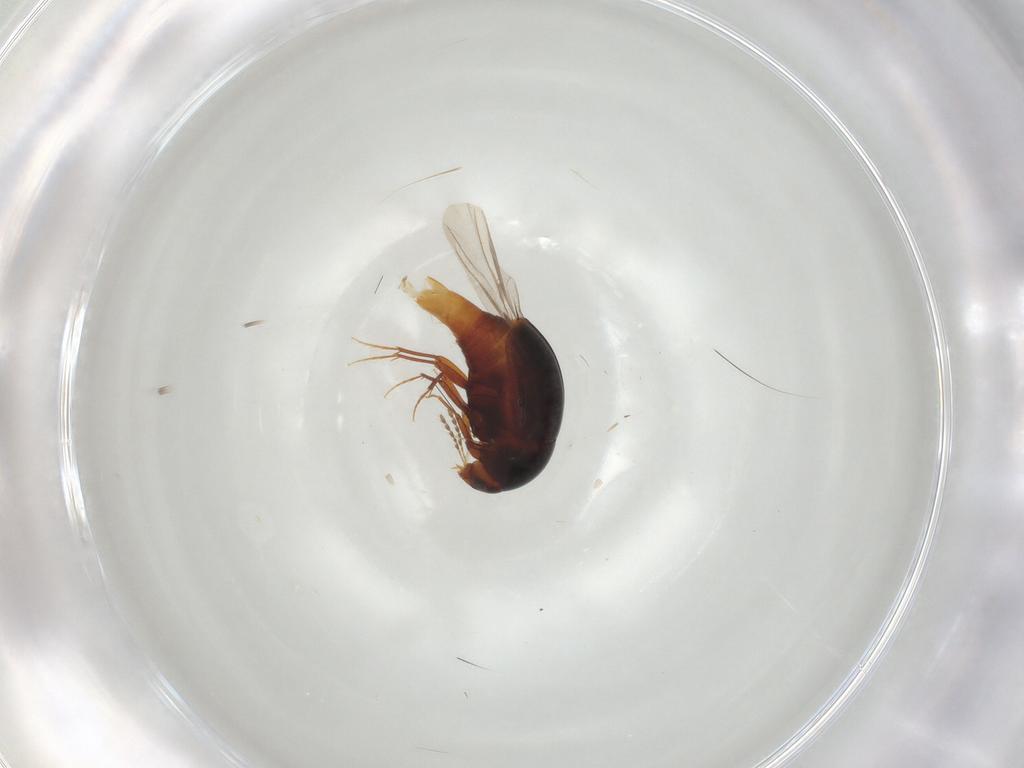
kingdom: Animalia
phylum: Arthropoda
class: Insecta
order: Coleoptera
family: Staphylinidae
